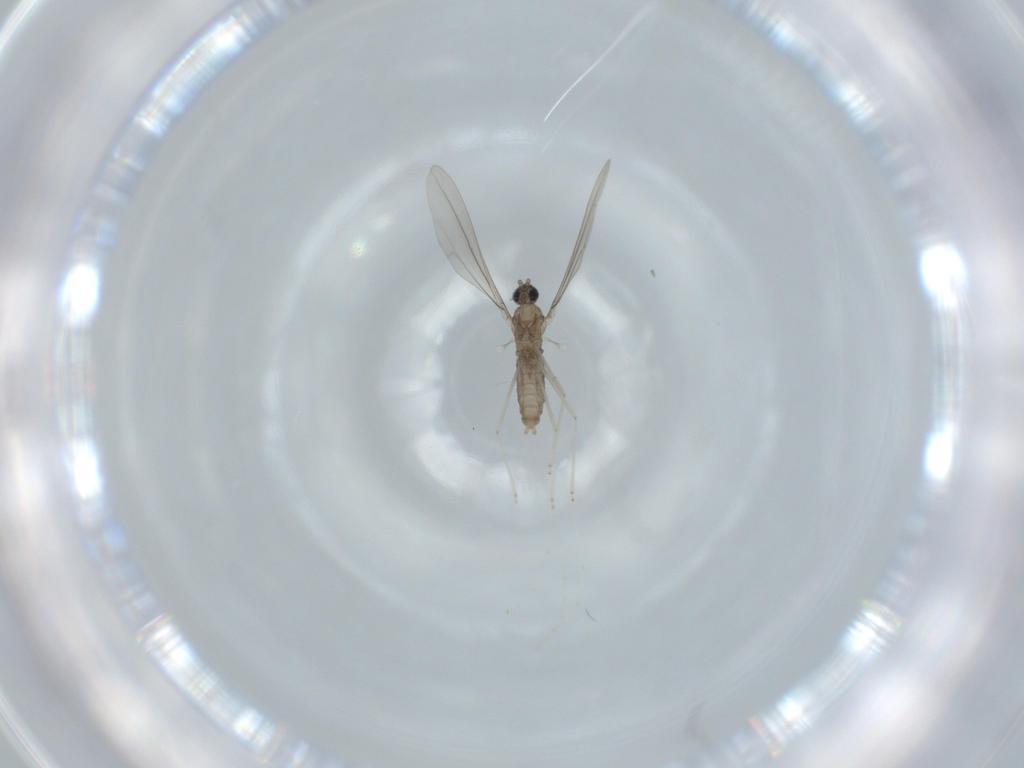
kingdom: Animalia
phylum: Arthropoda
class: Insecta
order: Diptera
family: Cecidomyiidae
